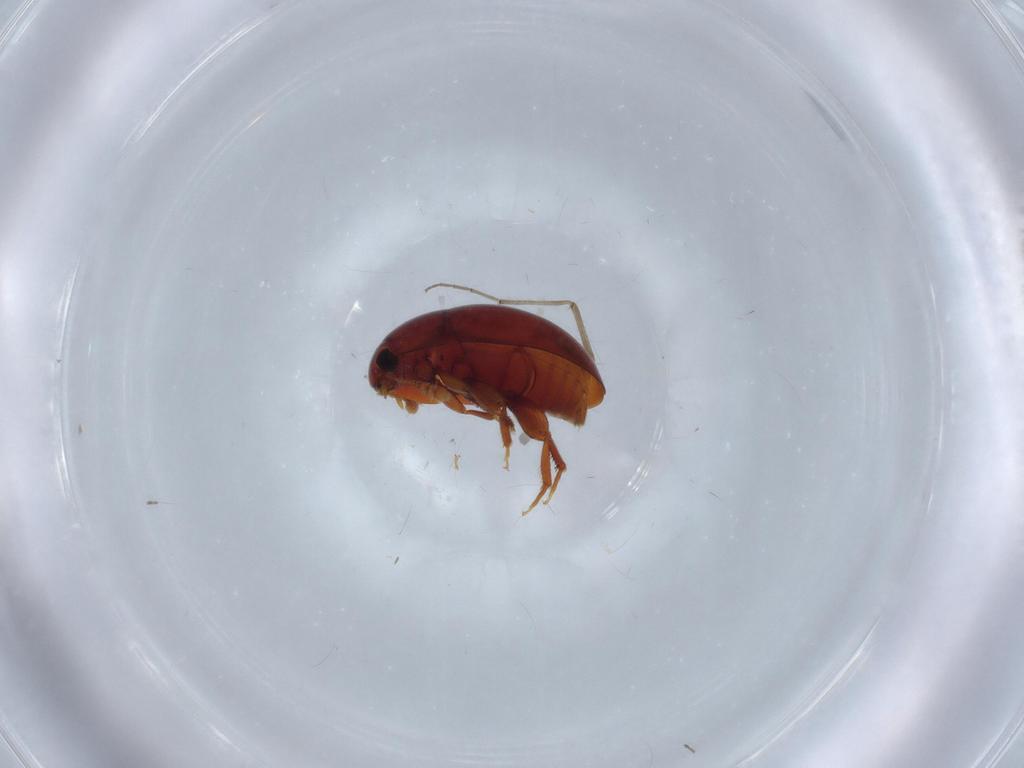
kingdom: Animalia
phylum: Arthropoda
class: Insecta
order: Coleoptera
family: Phalacridae
